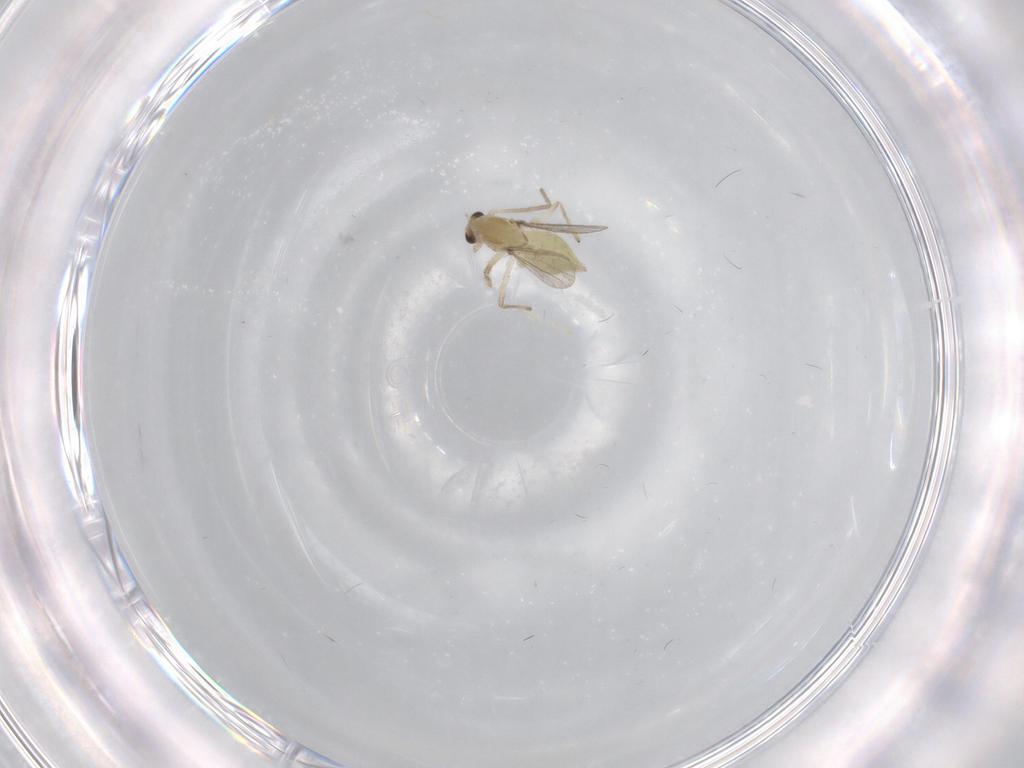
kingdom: Animalia
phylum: Arthropoda
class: Insecta
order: Diptera
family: Chironomidae
